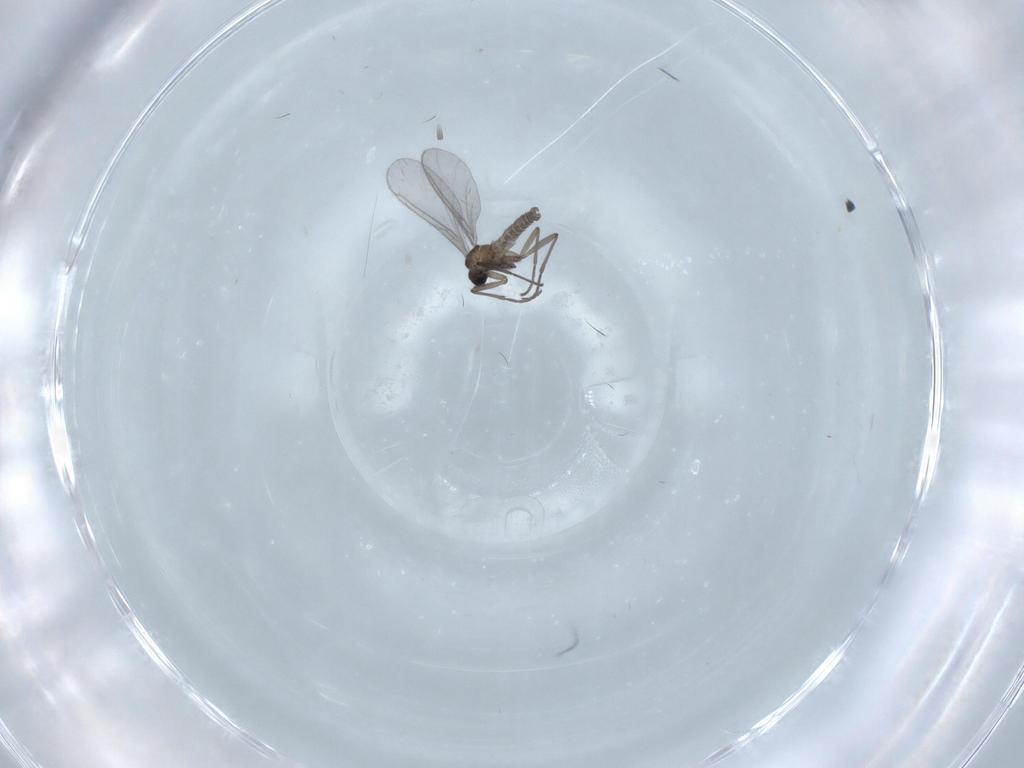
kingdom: Animalia
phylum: Arthropoda
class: Insecta
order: Diptera
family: Sciaridae
